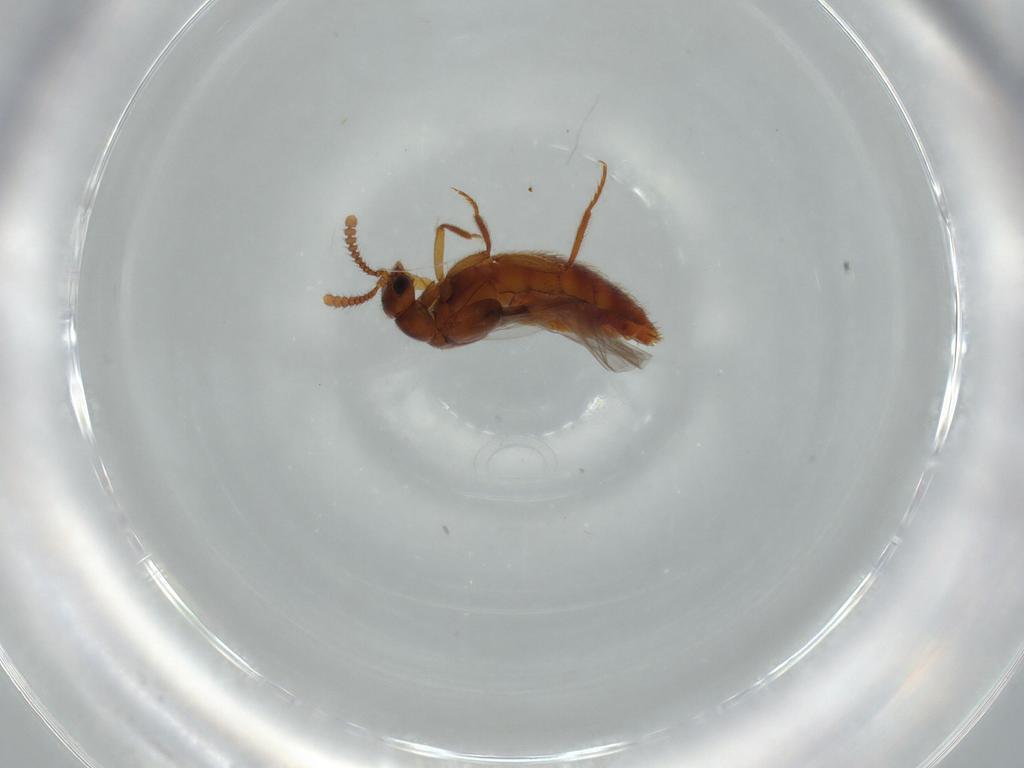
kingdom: Animalia
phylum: Arthropoda
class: Insecta
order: Coleoptera
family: Staphylinidae
